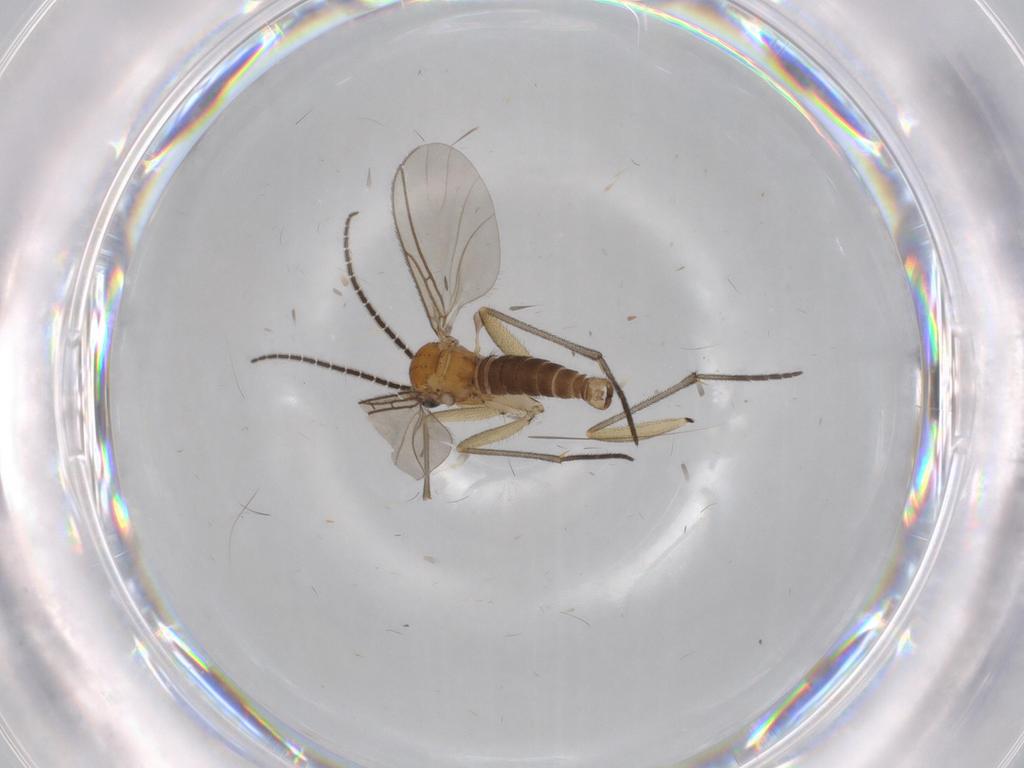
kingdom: Animalia
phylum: Arthropoda
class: Insecta
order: Diptera
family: Sciaridae
